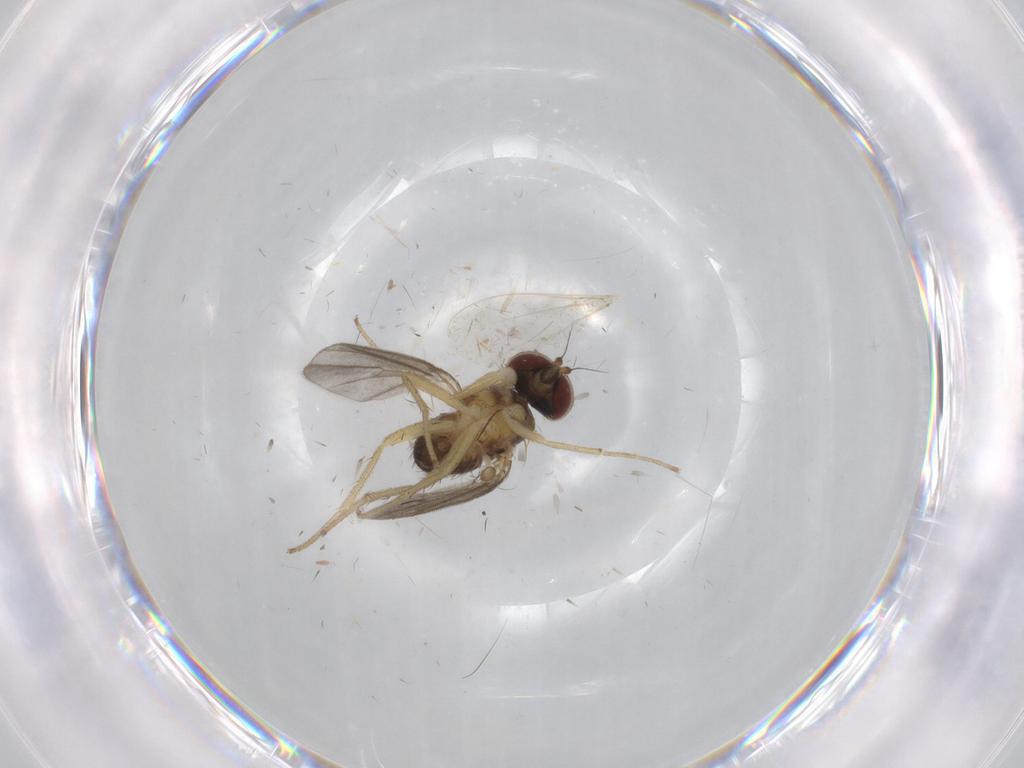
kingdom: Animalia
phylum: Arthropoda
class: Insecta
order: Diptera
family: Dolichopodidae
